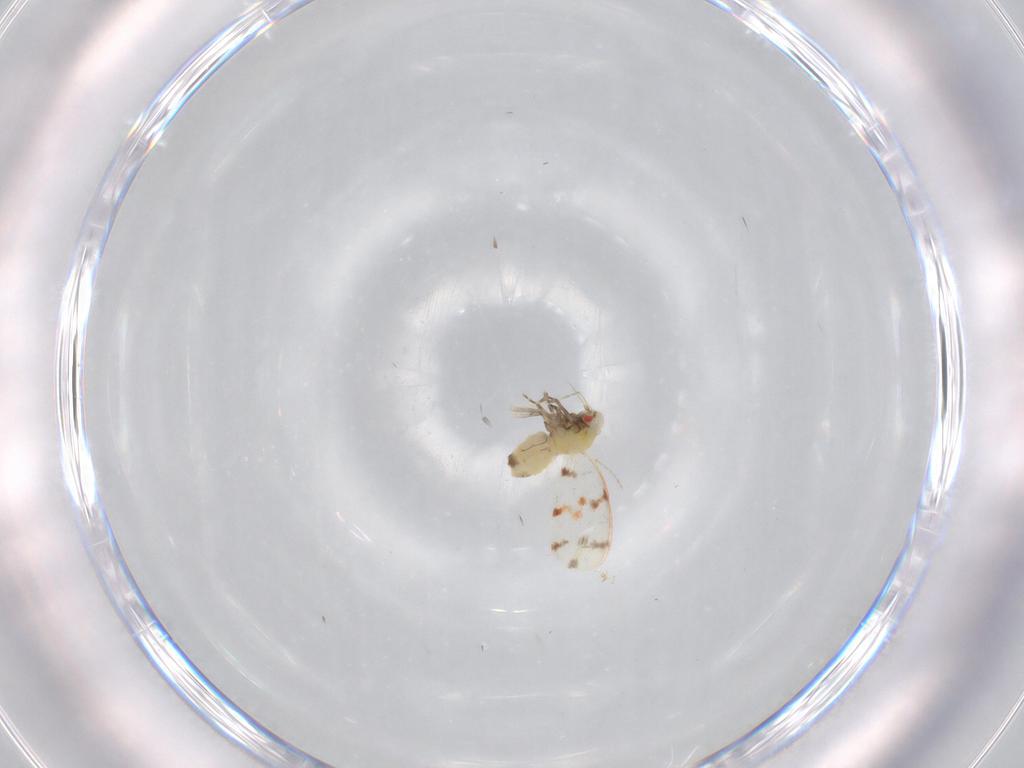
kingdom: Animalia
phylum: Arthropoda
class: Insecta
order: Hemiptera
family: Aleyrodidae
